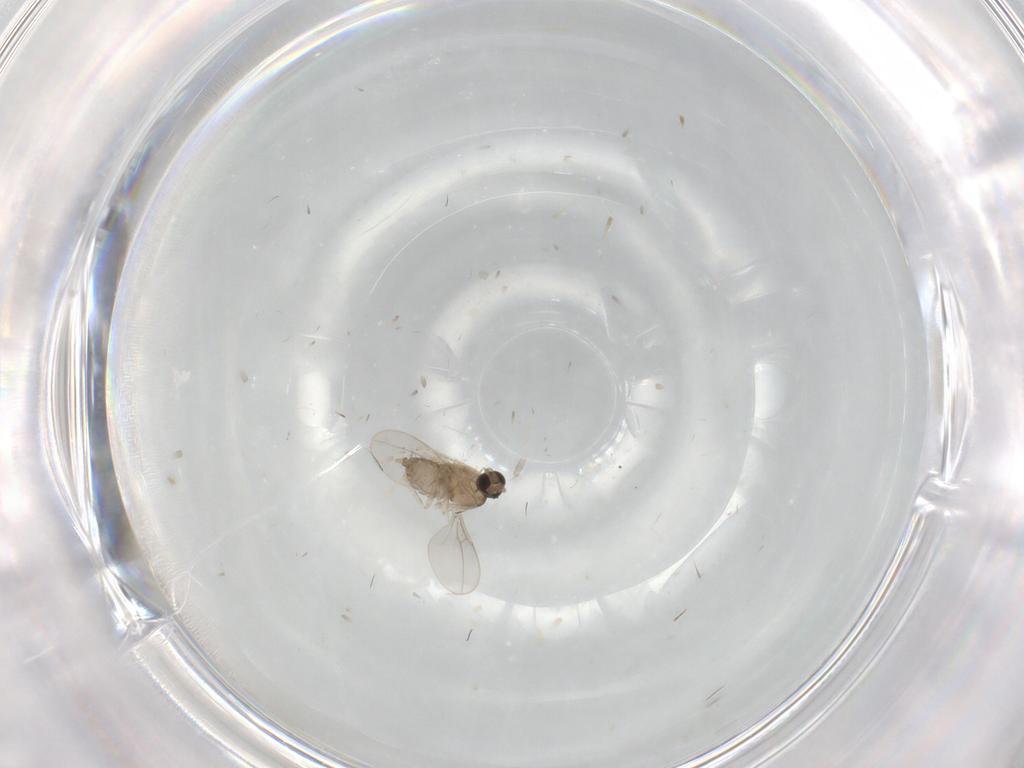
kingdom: Animalia
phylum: Arthropoda
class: Insecta
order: Diptera
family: Cecidomyiidae
